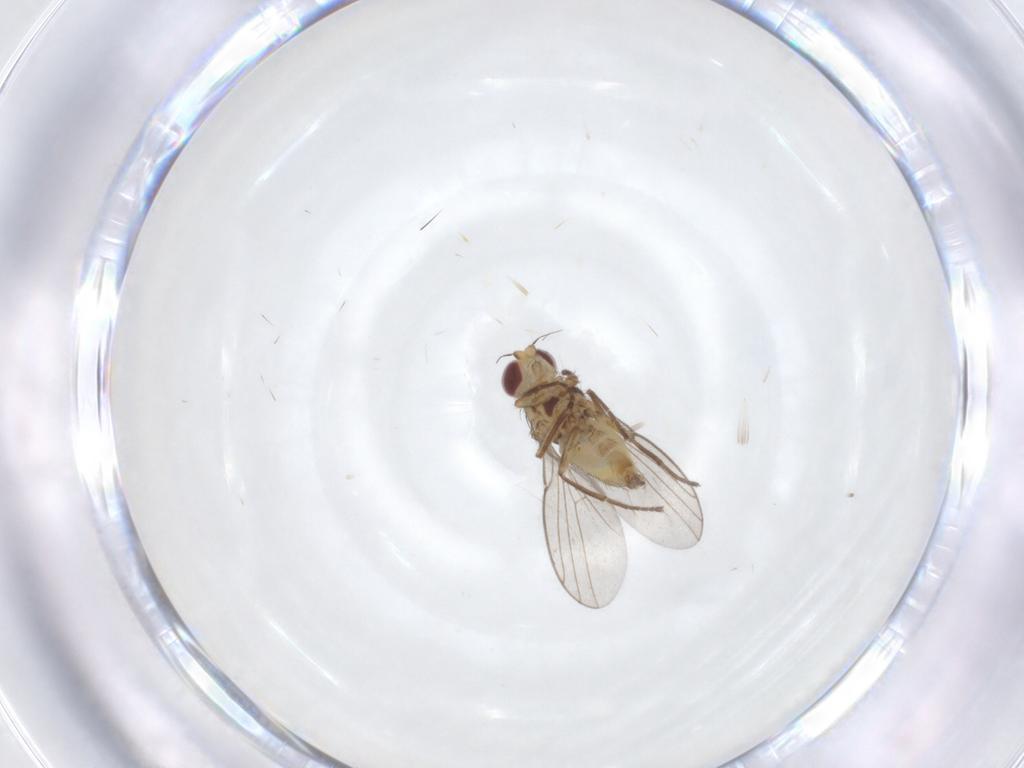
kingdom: Animalia
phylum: Arthropoda
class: Insecta
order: Diptera
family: Agromyzidae
